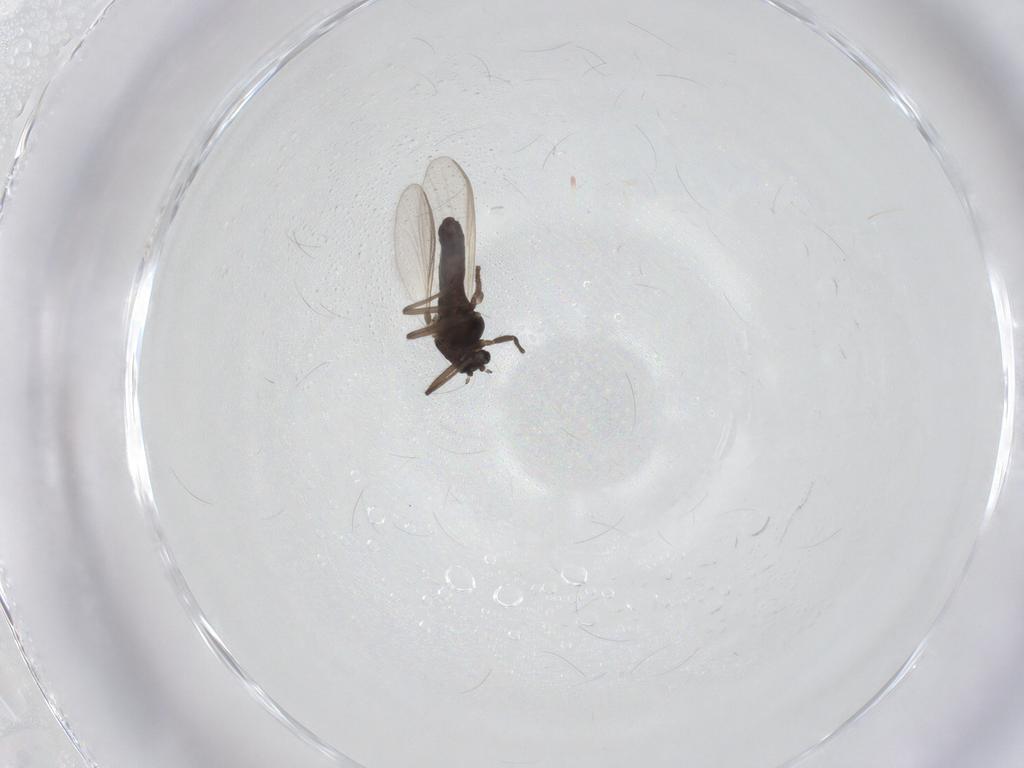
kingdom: Animalia
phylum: Arthropoda
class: Insecta
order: Diptera
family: Chironomidae
